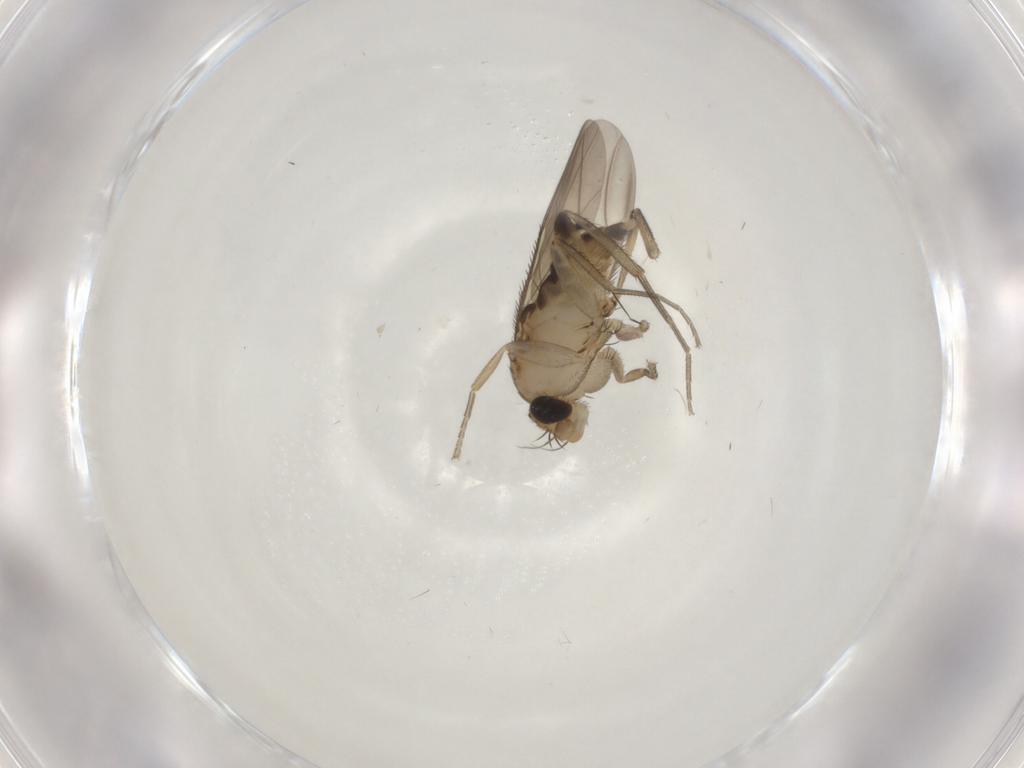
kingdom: Animalia
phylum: Arthropoda
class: Insecta
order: Diptera
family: Phoridae
